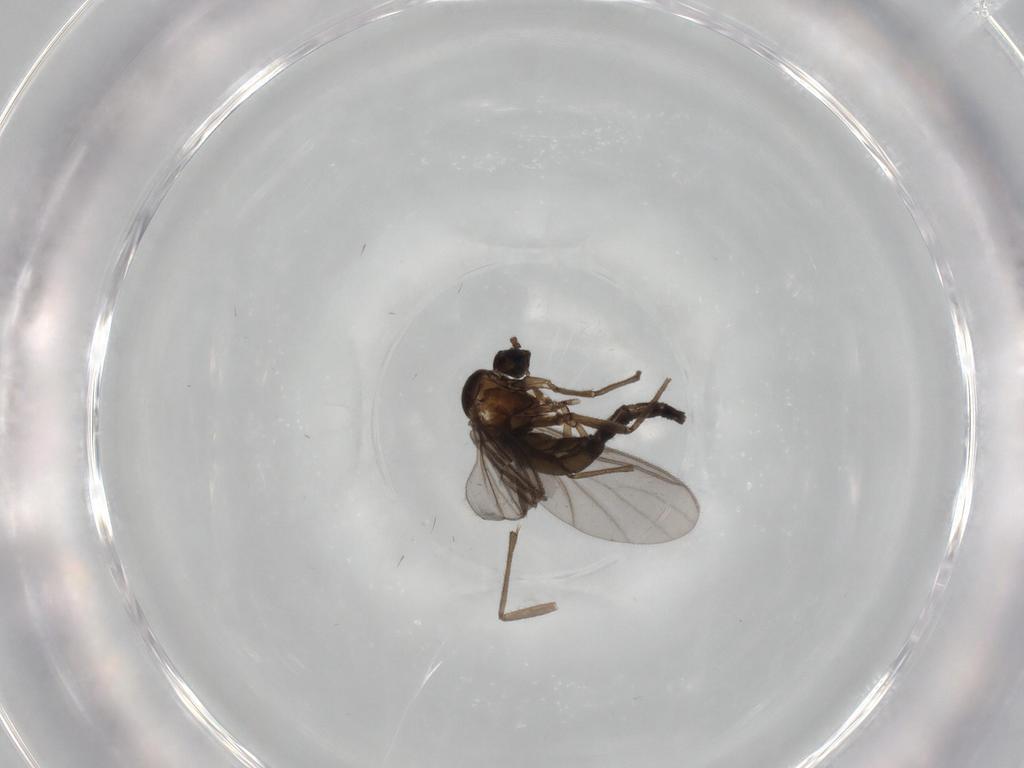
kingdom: Animalia
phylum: Arthropoda
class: Insecta
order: Diptera
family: Sciaridae
